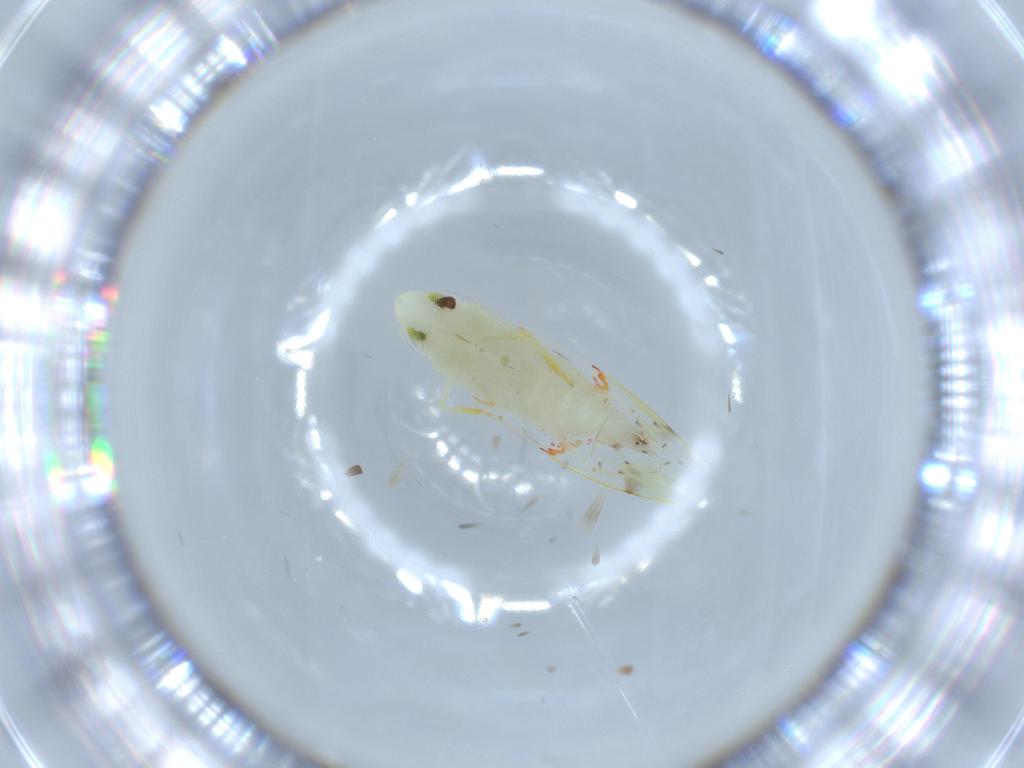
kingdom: Animalia
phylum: Arthropoda
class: Insecta
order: Hemiptera
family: Cicadellidae
